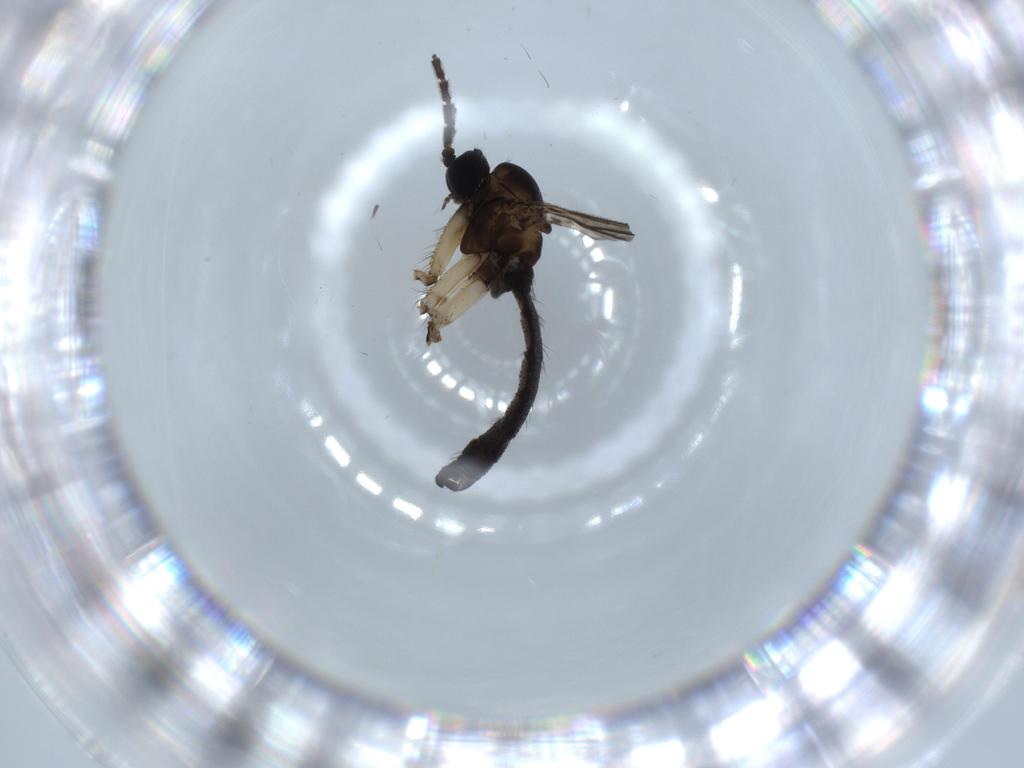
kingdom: Animalia
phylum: Arthropoda
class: Insecta
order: Diptera
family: Sciaridae
